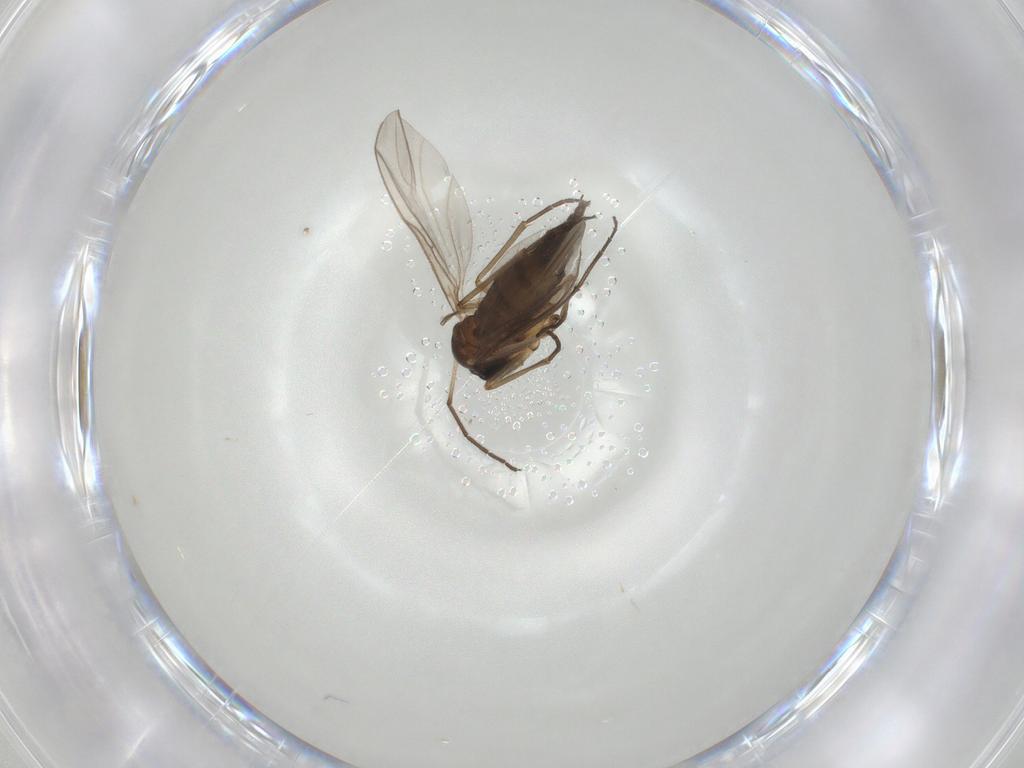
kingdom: Animalia
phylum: Arthropoda
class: Insecta
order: Diptera
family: Sciaridae
